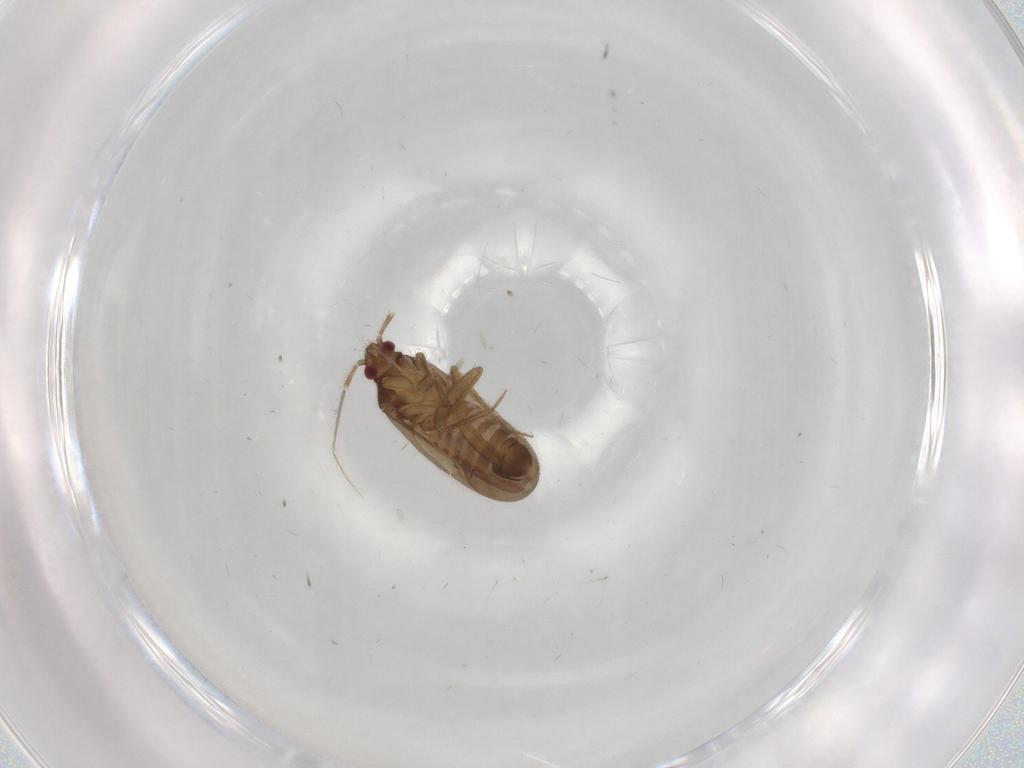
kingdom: Animalia
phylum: Arthropoda
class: Insecta
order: Hemiptera
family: Ceratocombidae
